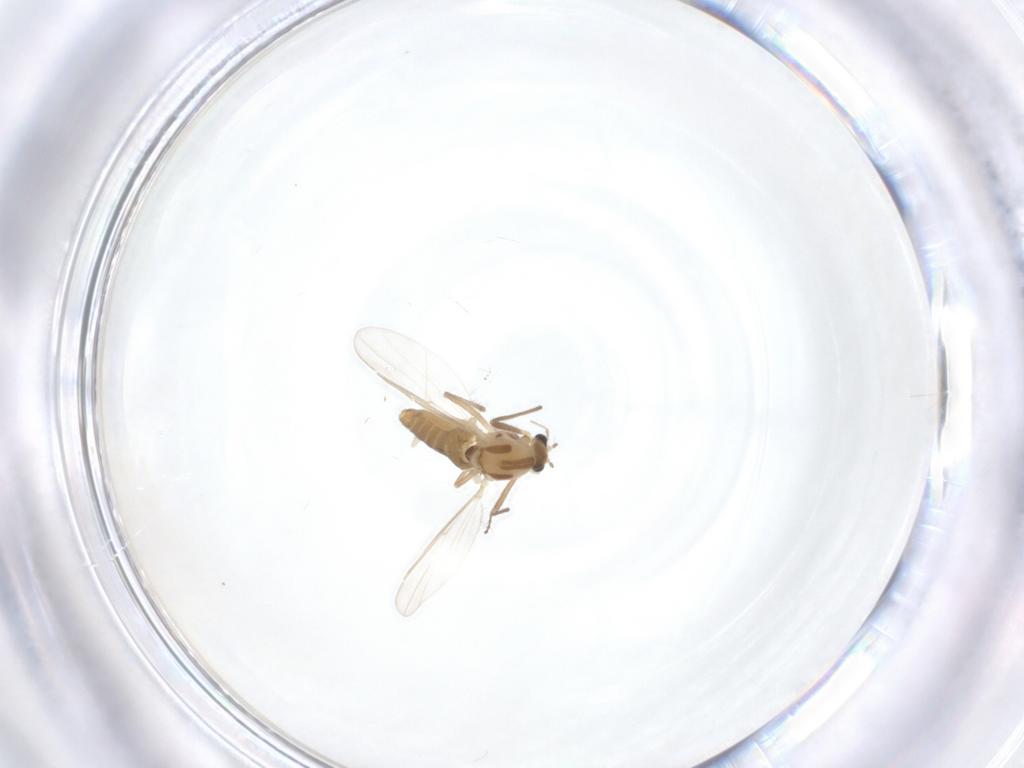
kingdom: Animalia
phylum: Arthropoda
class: Insecta
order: Diptera
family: Chironomidae
